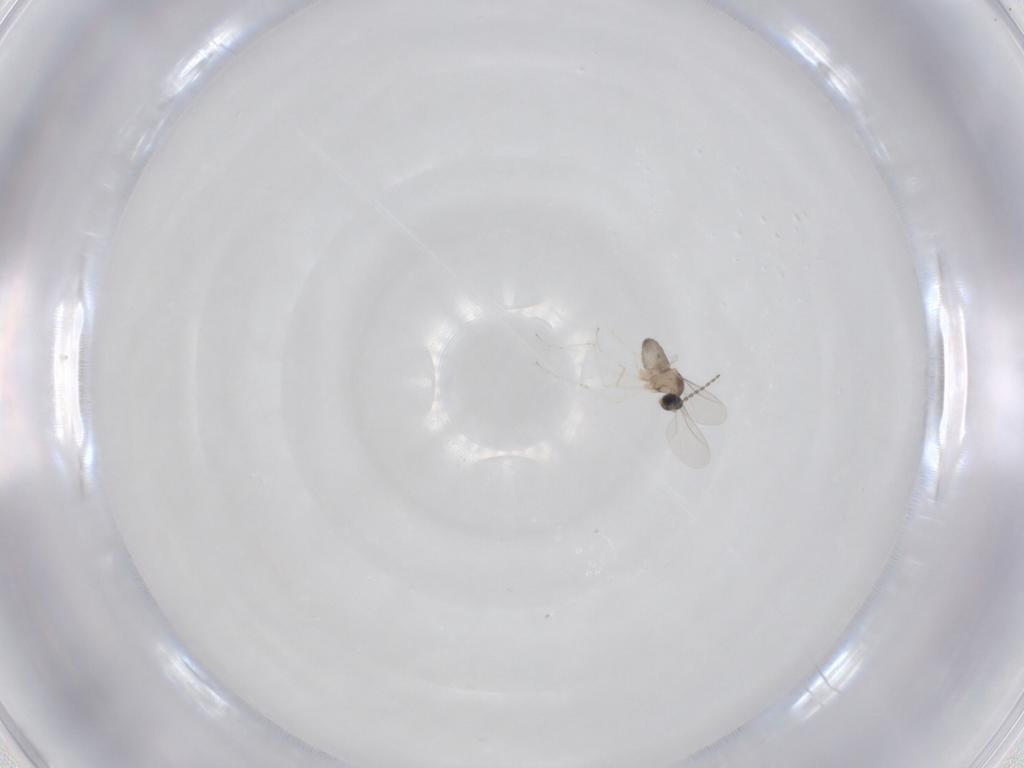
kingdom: Animalia
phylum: Arthropoda
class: Insecta
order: Diptera
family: Cecidomyiidae
